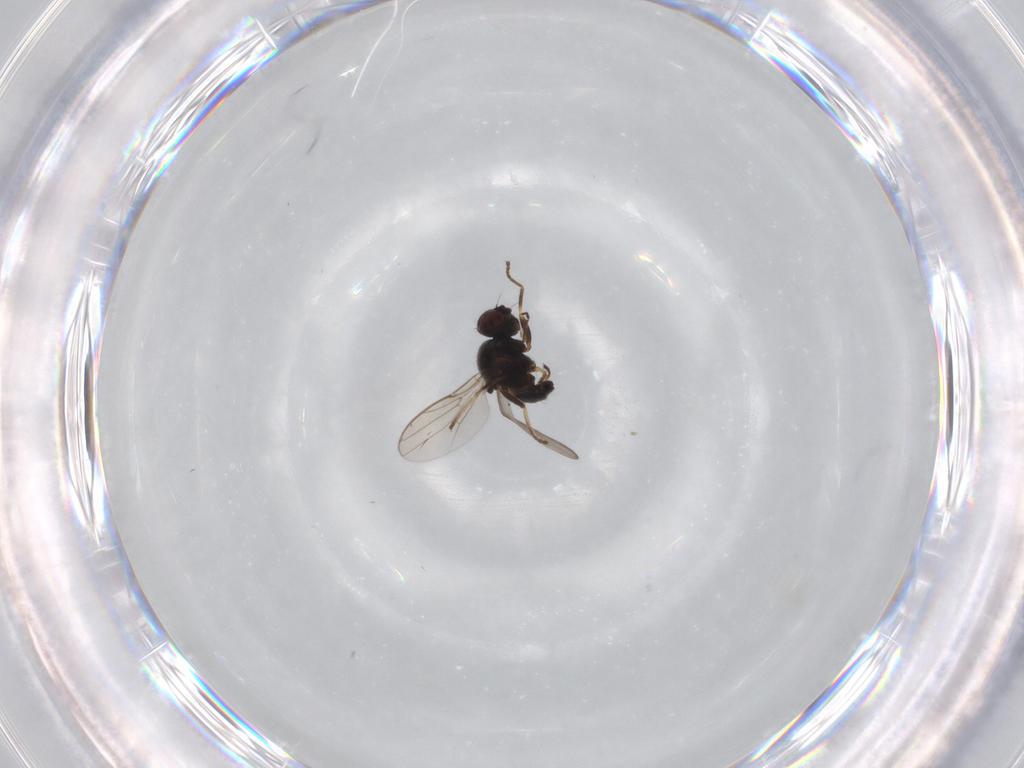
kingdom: Animalia
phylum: Arthropoda
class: Insecta
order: Diptera
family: Chloropidae
